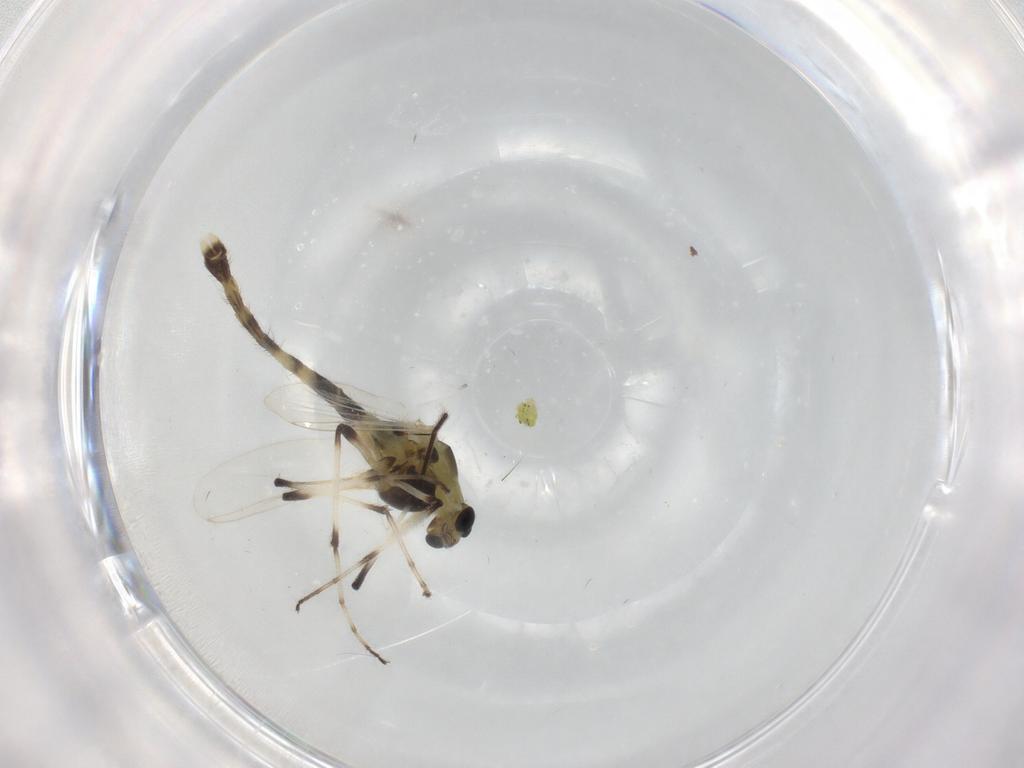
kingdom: Animalia
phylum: Arthropoda
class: Insecta
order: Diptera
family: Chironomidae
